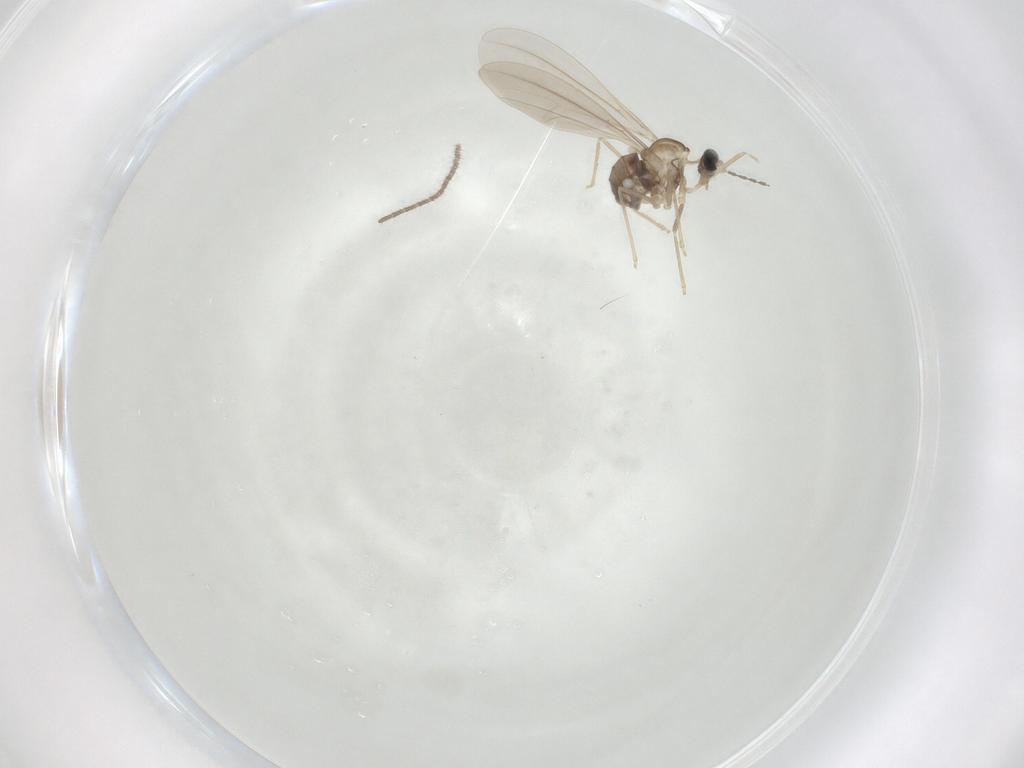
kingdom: Animalia
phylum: Arthropoda
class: Insecta
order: Diptera
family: Cecidomyiidae
